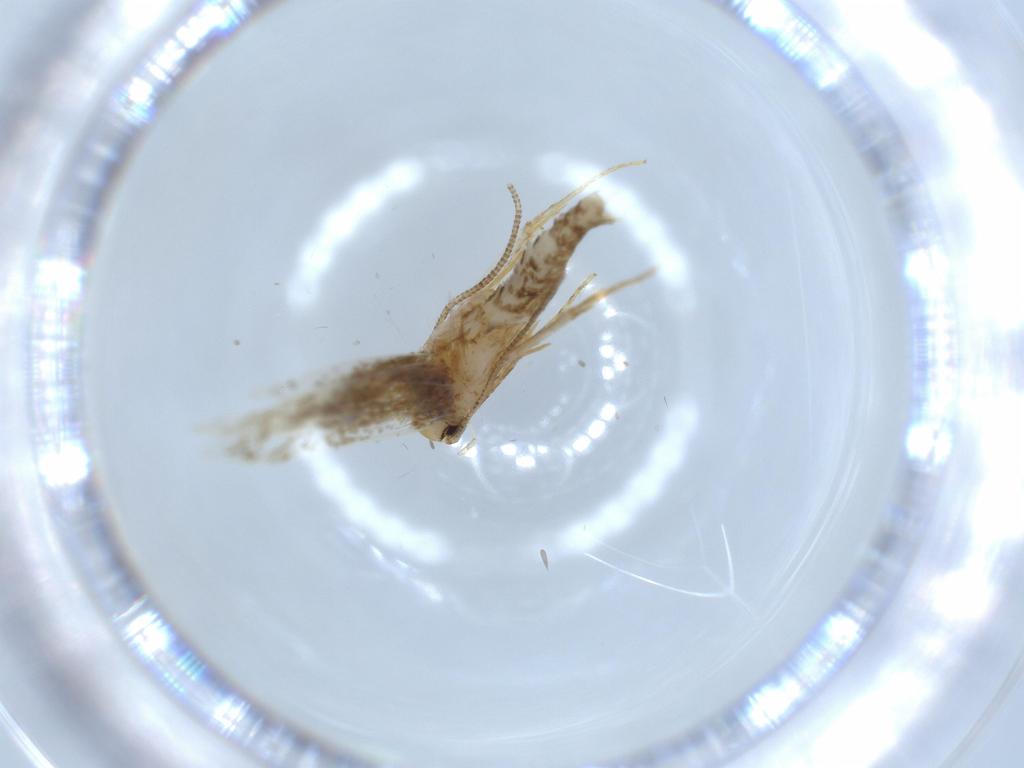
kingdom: Animalia
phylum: Arthropoda
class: Insecta
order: Lepidoptera
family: Tineidae
